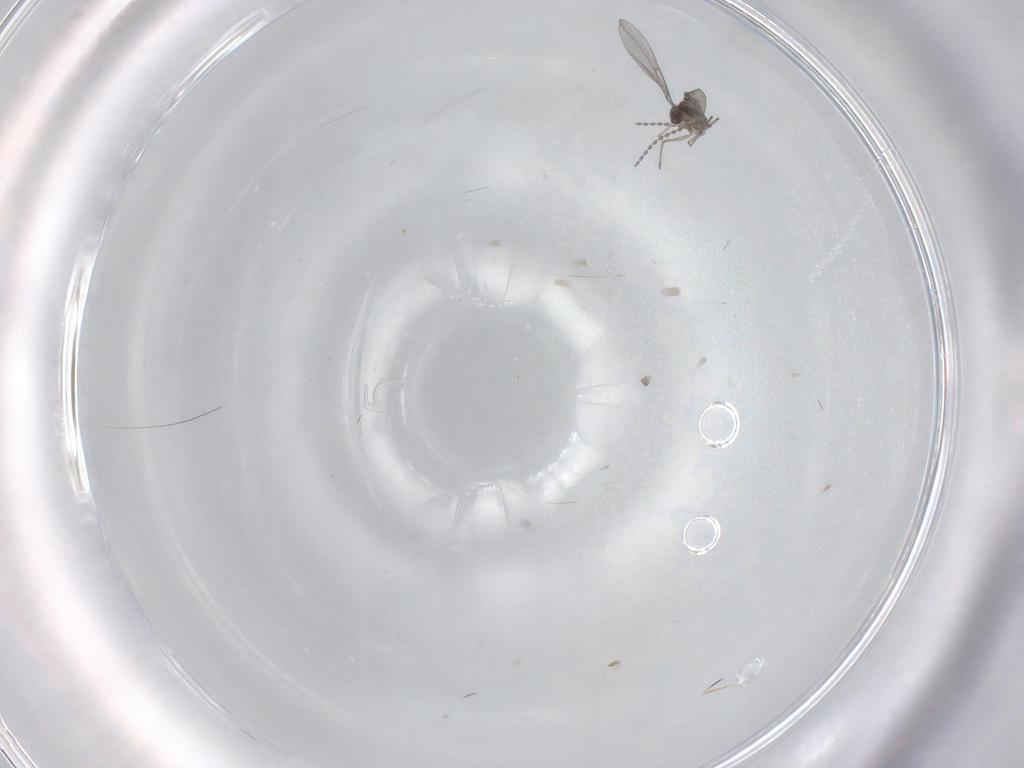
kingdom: Animalia
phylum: Arthropoda
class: Insecta
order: Diptera
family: Cecidomyiidae
